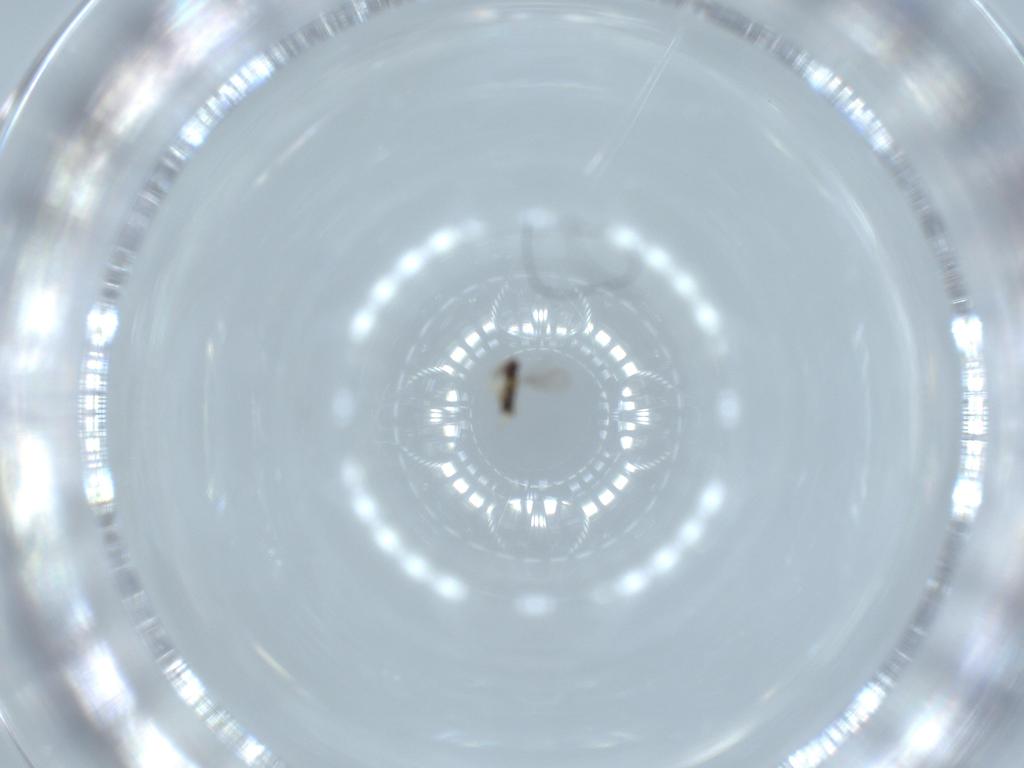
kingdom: Animalia
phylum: Arthropoda
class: Insecta
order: Hymenoptera
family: Aphelinidae
